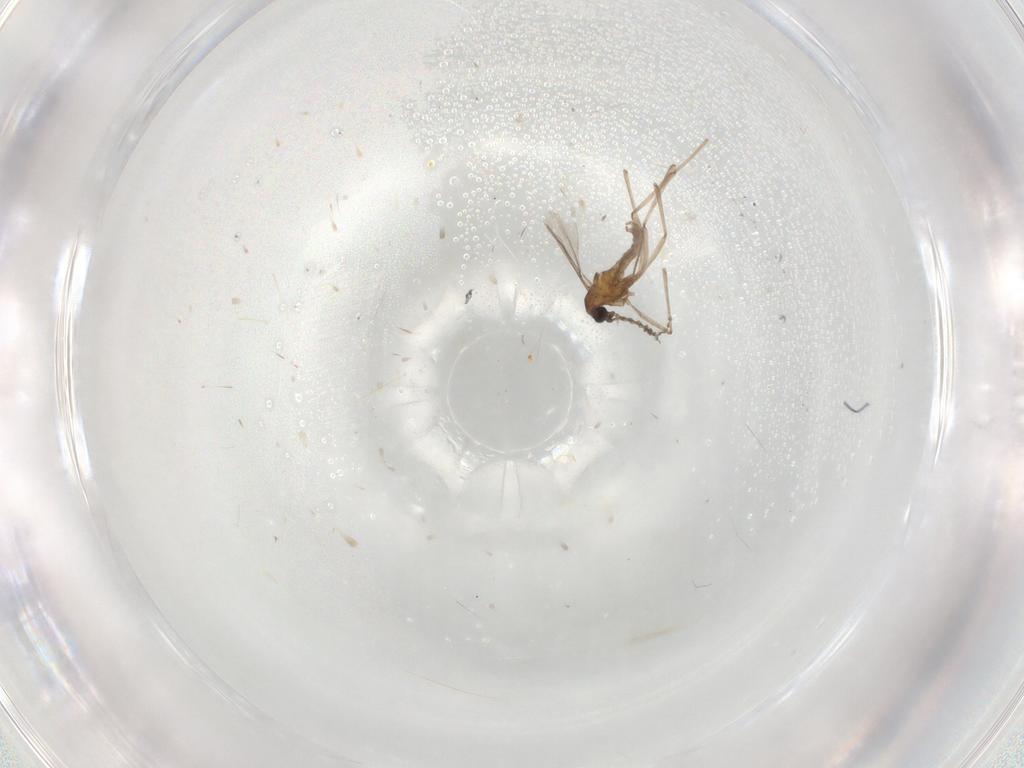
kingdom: Animalia
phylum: Arthropoda
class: Insecta
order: Diptera
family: Cecidomyiidae
